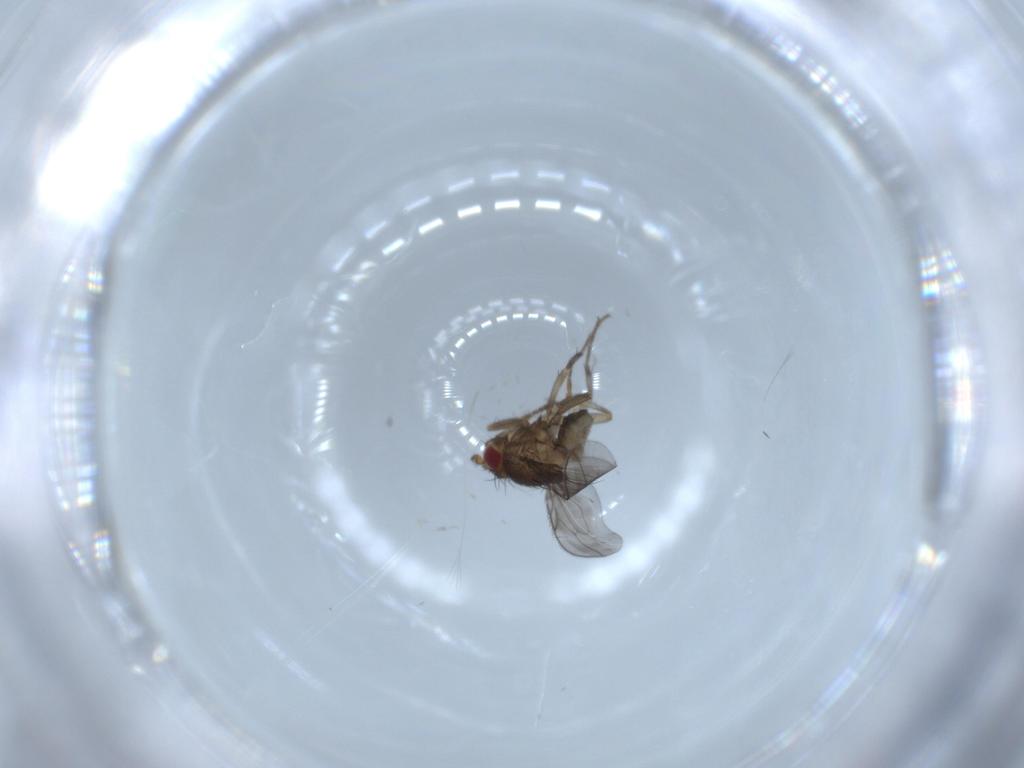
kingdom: Animalia
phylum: Arthropoda
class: Insecta
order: Diptera
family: Sphaeroceridae
